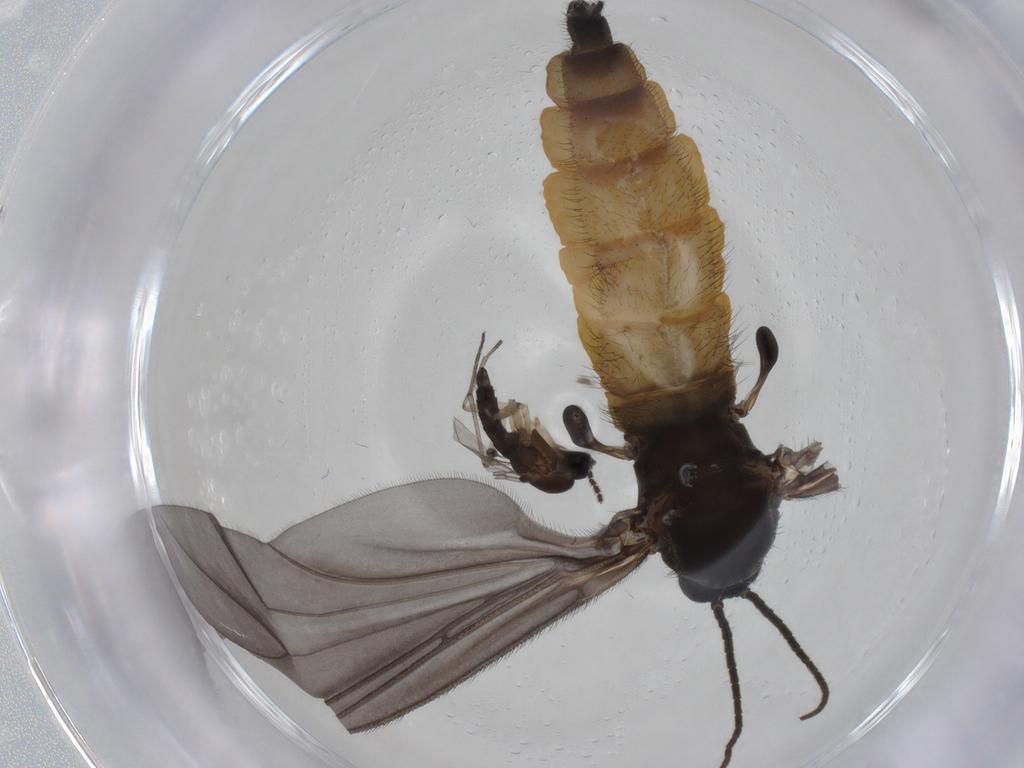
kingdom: Animalia
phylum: Arthropoda
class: Insecta
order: Diptera
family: Sciaridae
